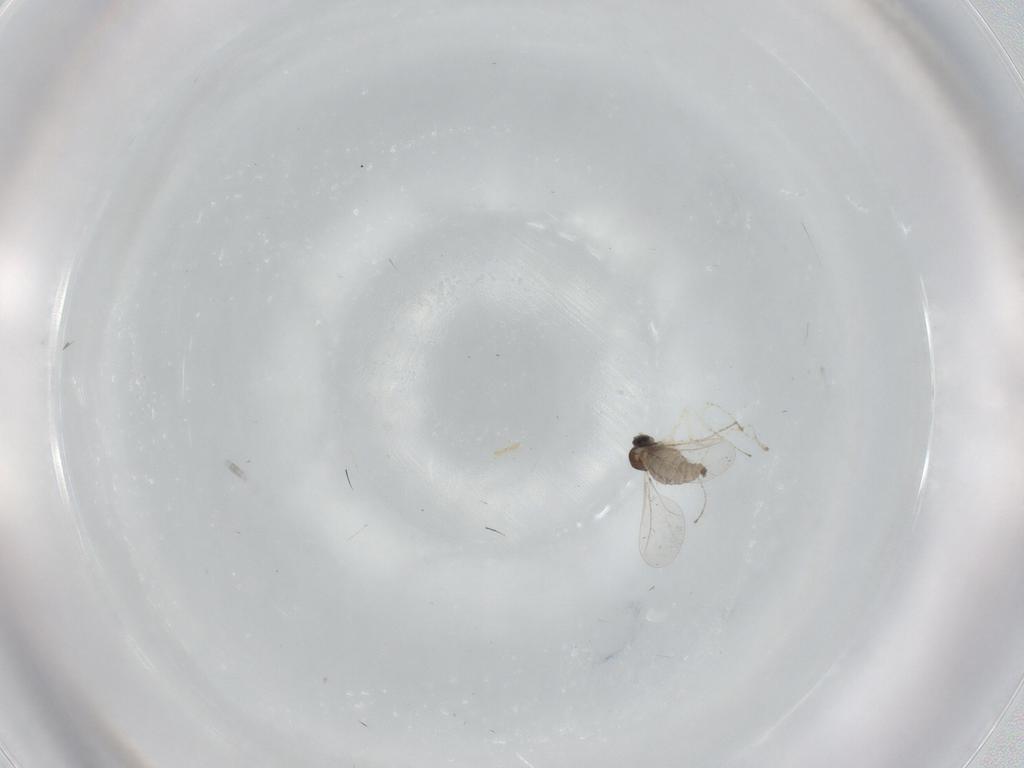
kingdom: Animalia
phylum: Arthropoda
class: Insecta
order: Diptera
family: Cecidomyiidae
